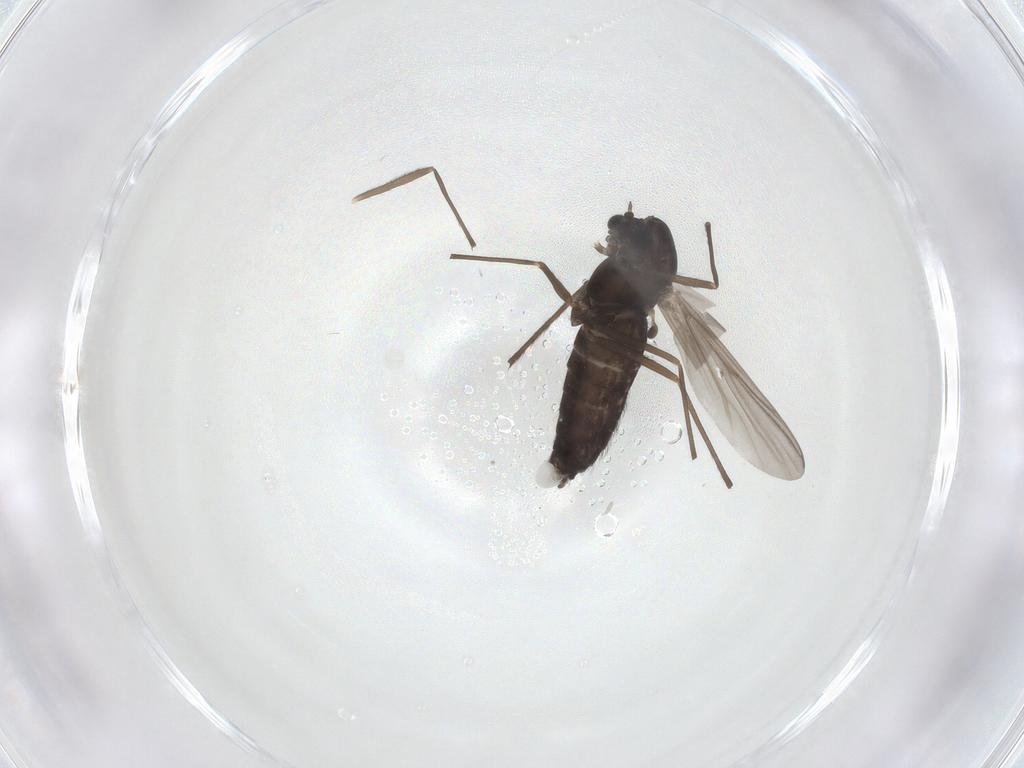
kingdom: Animalia
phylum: Arthropoda
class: Insecta
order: Diptera
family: Chironomidae
